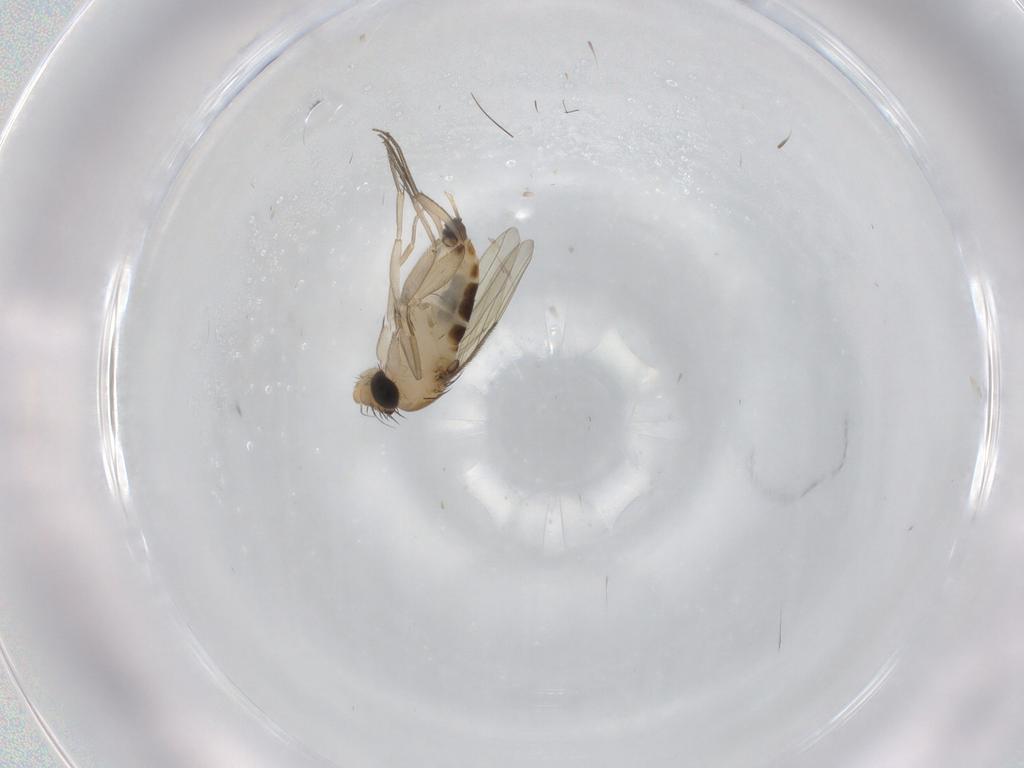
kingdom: Animalia
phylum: Arthropoda
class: Insecta
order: Diptera
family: Phoridae
